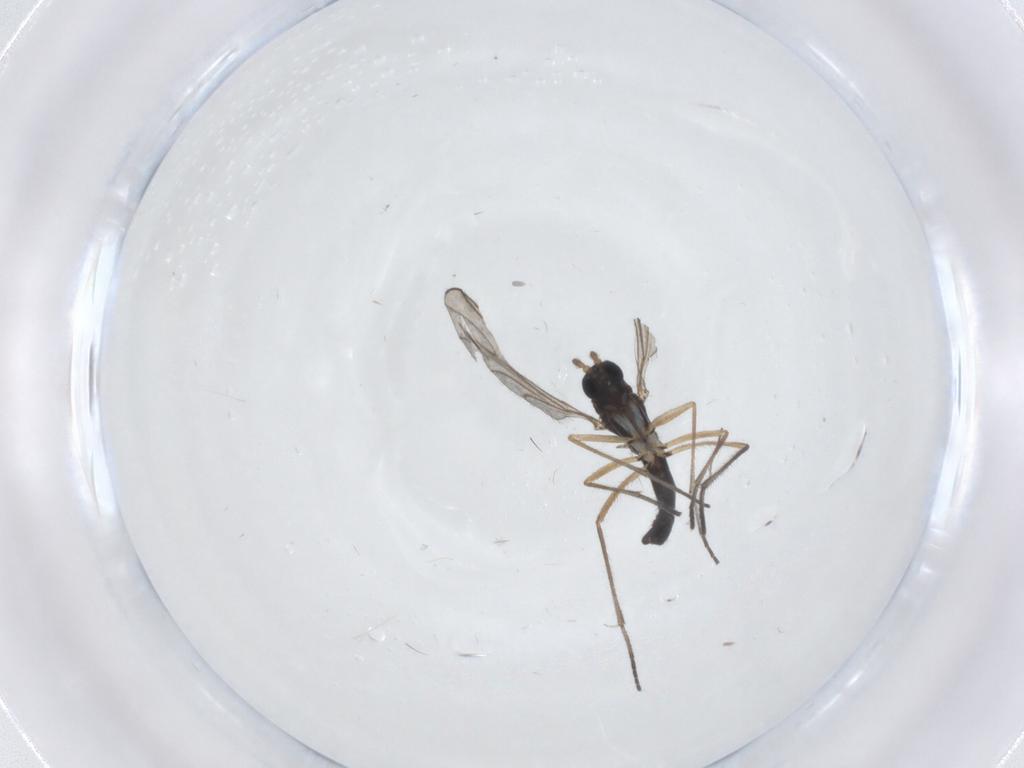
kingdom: Animalia
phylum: Arthropoda
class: Insecta
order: Diptera
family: Sciaridae
